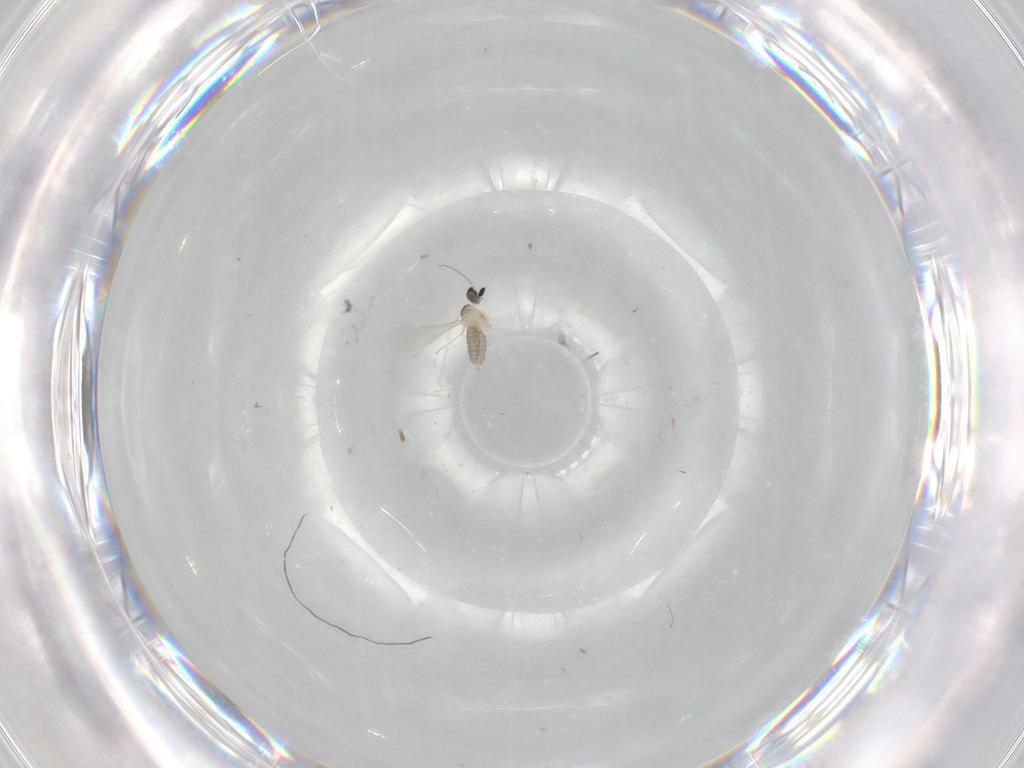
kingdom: Animalia
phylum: Arthropoda
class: Insecta
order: Diptera
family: Cecidomyiidae
